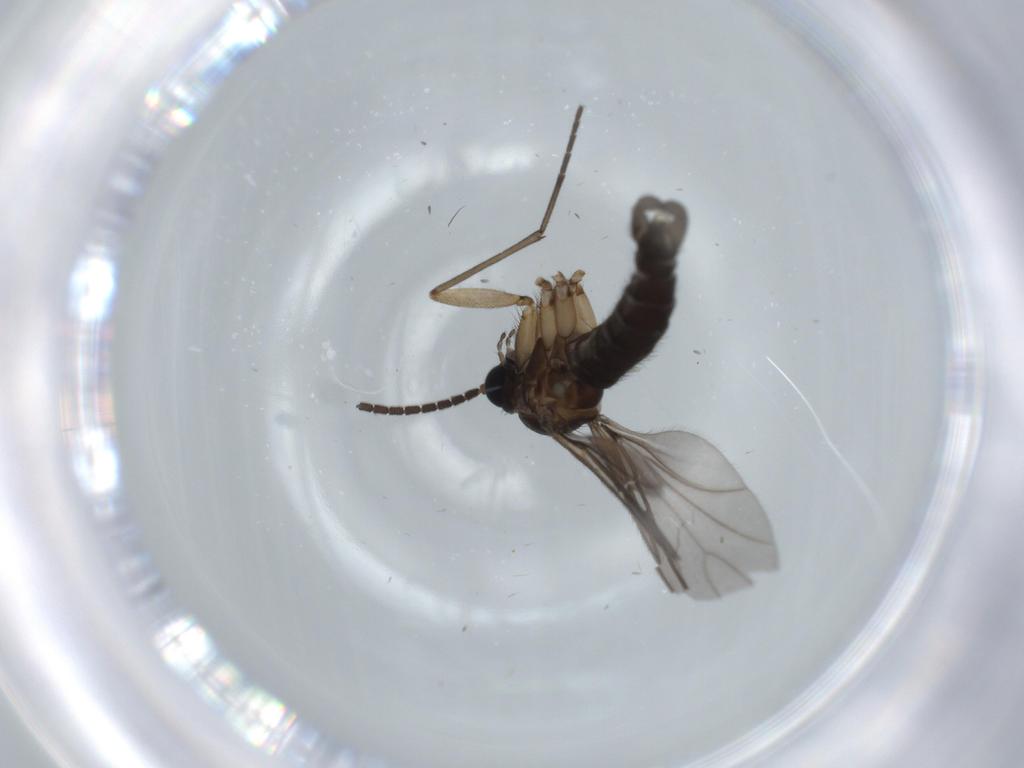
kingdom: Animalia
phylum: Arthropoda
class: Insecta
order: Diptera
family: Sciaridae
